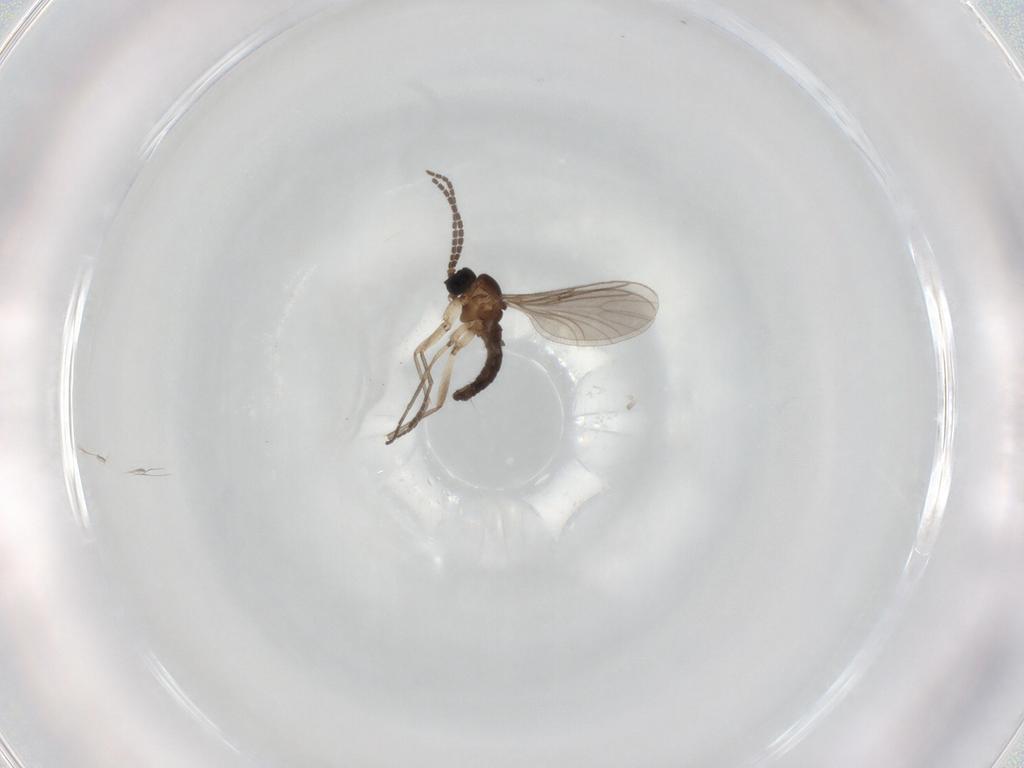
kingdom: Animalia
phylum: Arthropoda
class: Insecta
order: Diptera
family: Sciaridae
